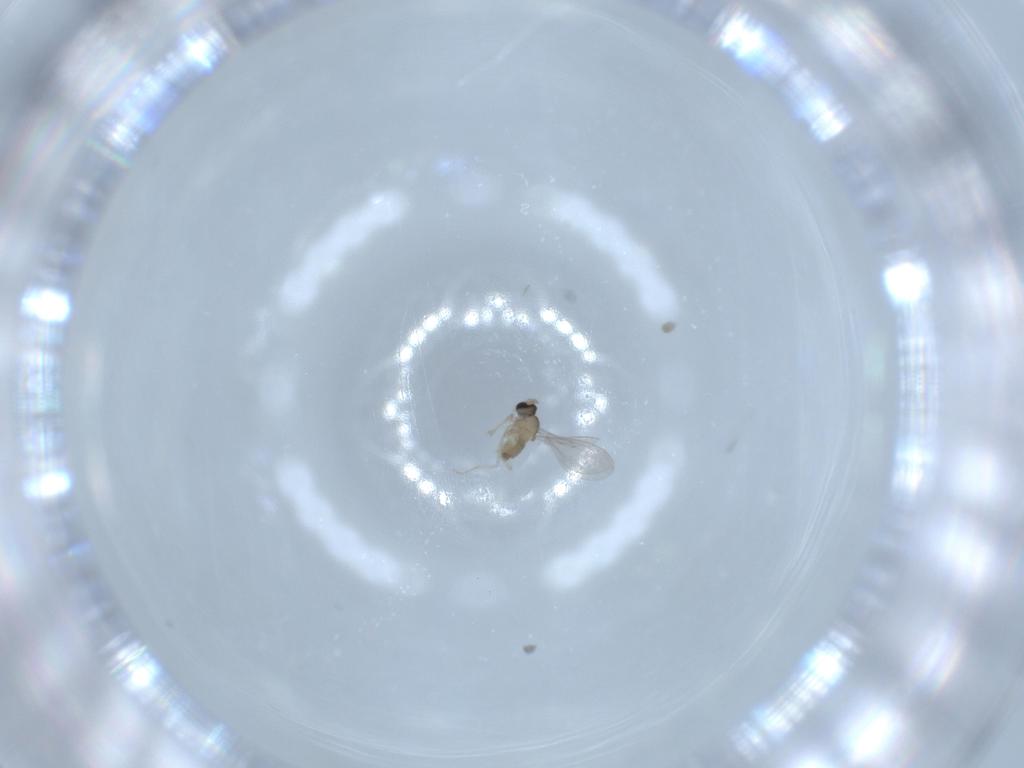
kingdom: Animalia
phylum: Arthropoda
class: Insecta
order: Diptera
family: Cecidomyiidae
